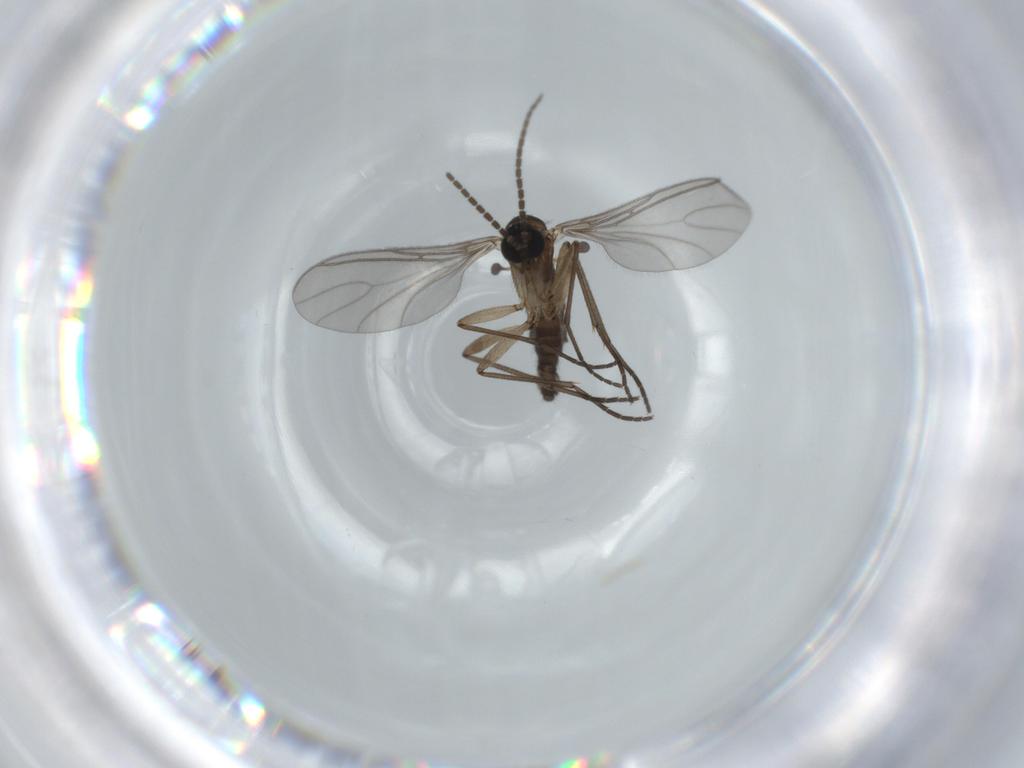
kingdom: Animalia
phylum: Arthropoda
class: Insecta
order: Diptera
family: Sciaridae
